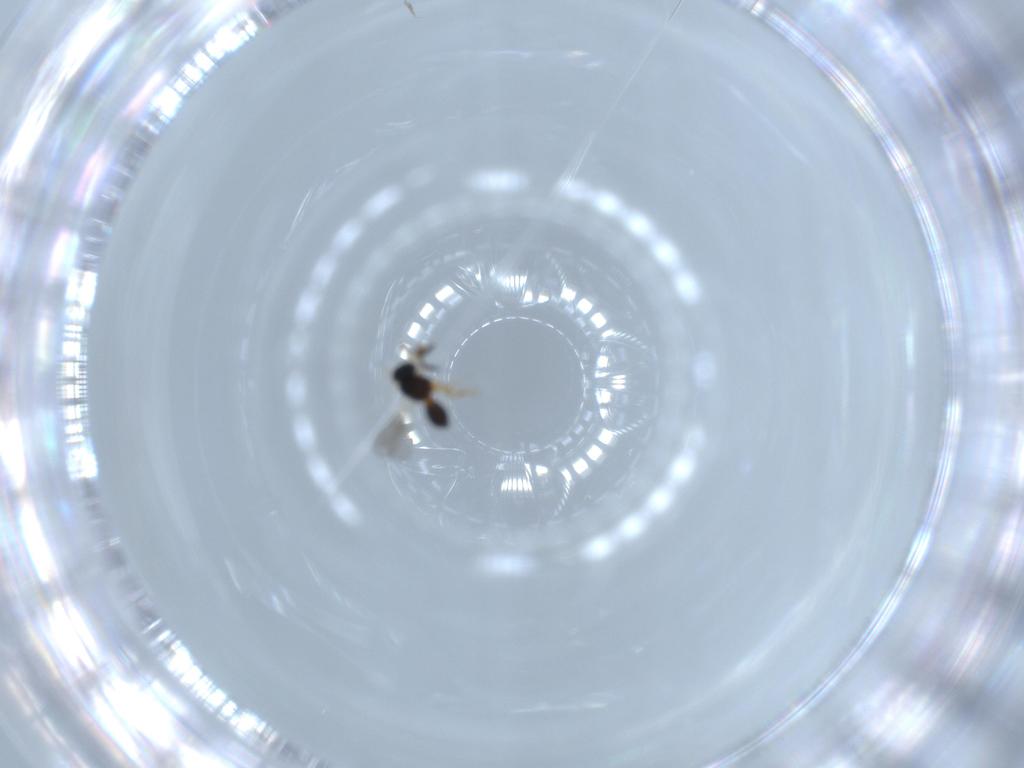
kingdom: Animalia
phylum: Arthropoda
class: Insecta
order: Hymenoptera
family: Scelionidae
